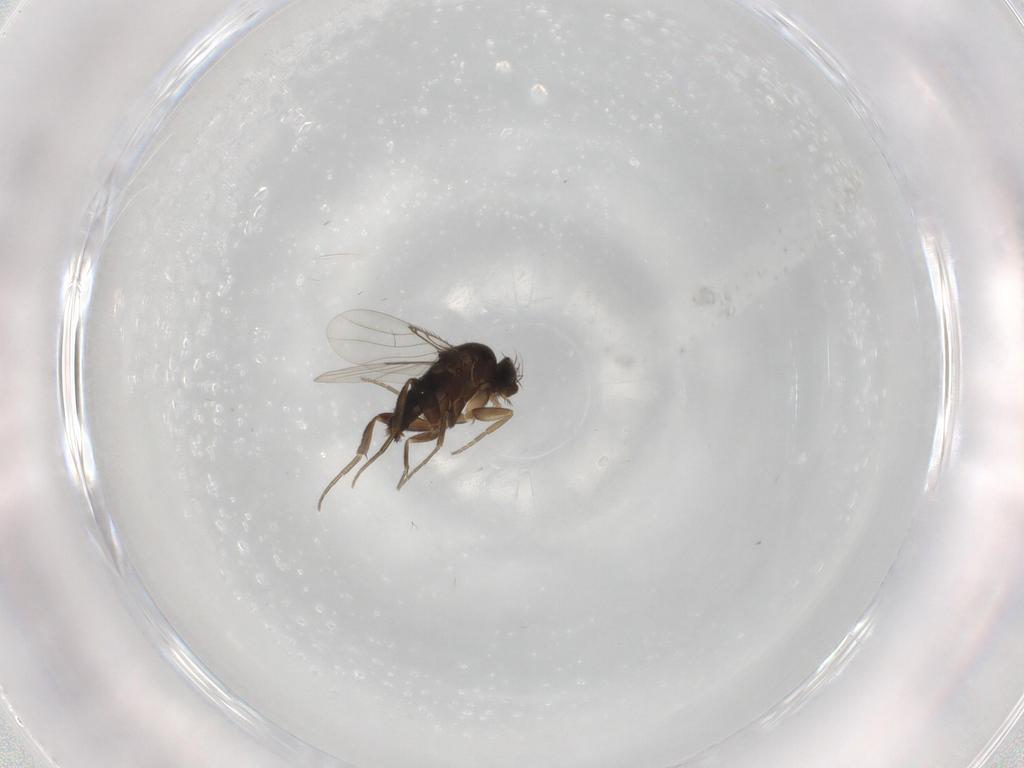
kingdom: Animalia
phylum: Arthropoda
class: Insecta
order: Diptera
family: Phoridae
